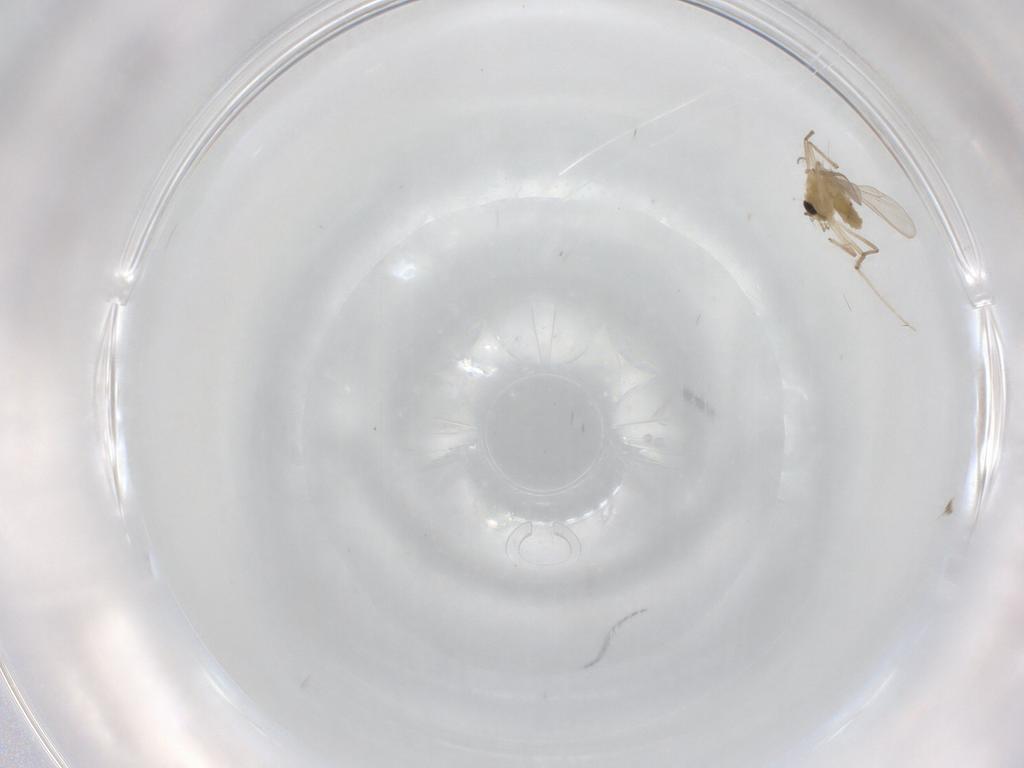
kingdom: Animalia
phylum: Arthropoda
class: Insecta
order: Diptera
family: Chironomidae
